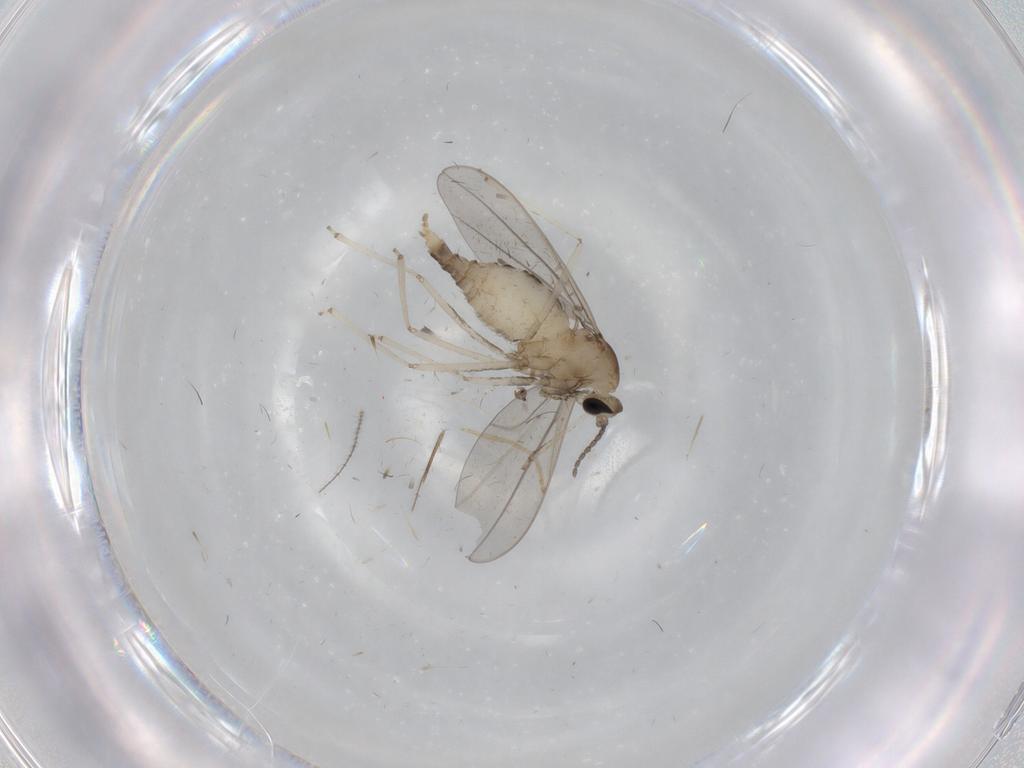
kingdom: Animalia
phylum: Arthropoda
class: Insecta
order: Diptera
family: Cecidomyiidae
